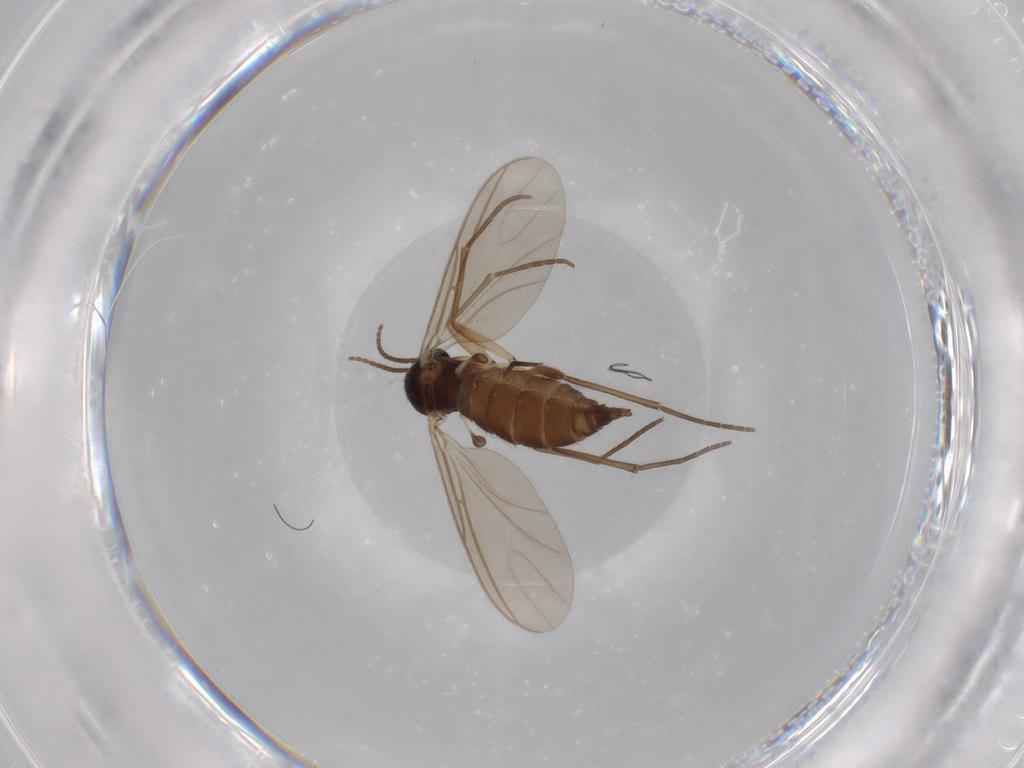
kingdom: Animalia
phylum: Arthropoda
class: Insecta
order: Diptera
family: Sciaridae
